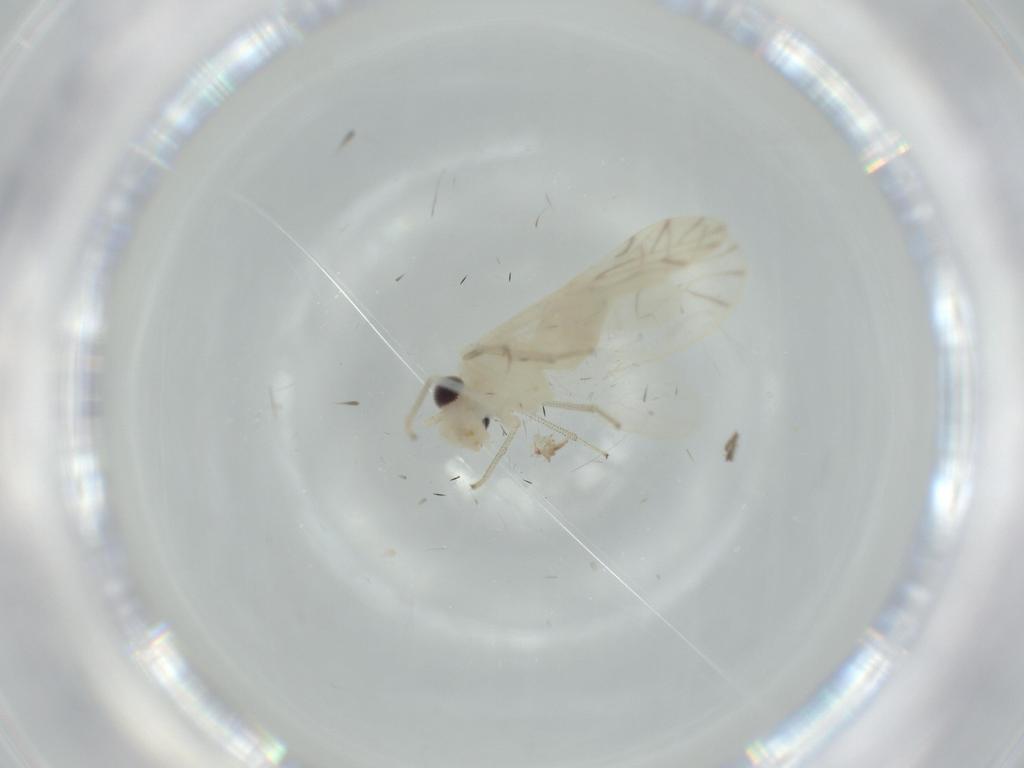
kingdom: Animalia
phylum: Arthropoda
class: Insecta
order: Psocodea
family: Caeciliusidae
